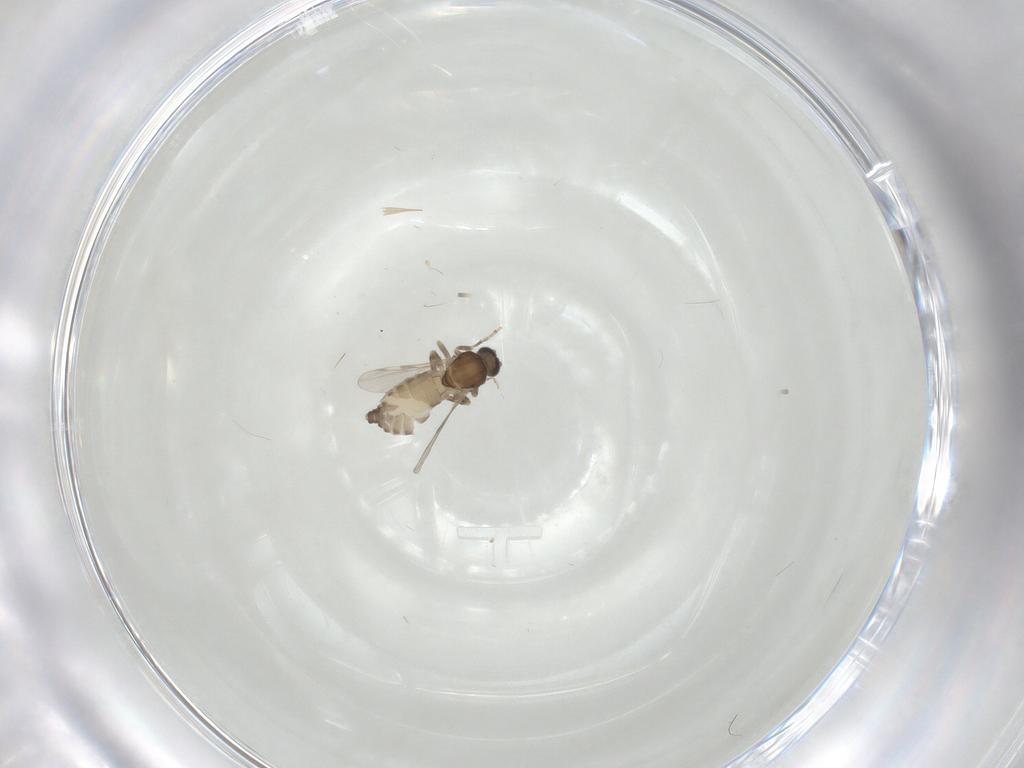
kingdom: Animalia
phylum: Arthropoda
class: Insecta
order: Diptera
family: Ceratopogonidae
